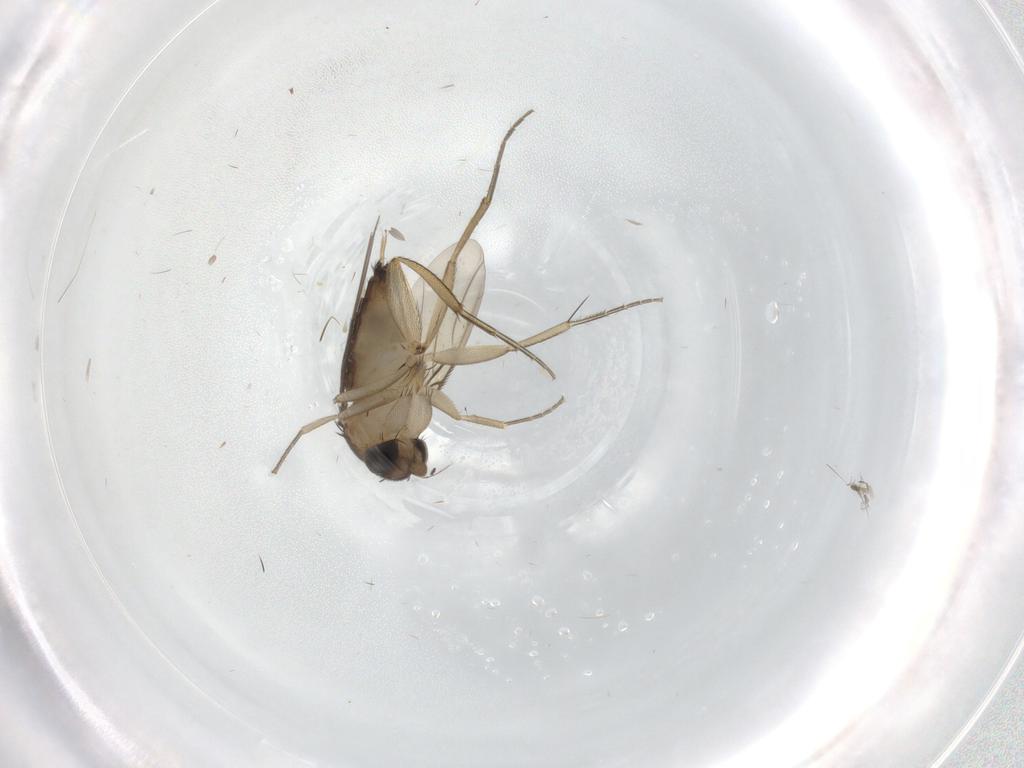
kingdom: Animalia
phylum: Arthropoda
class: Insecta
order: Diptera
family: Phoridae
